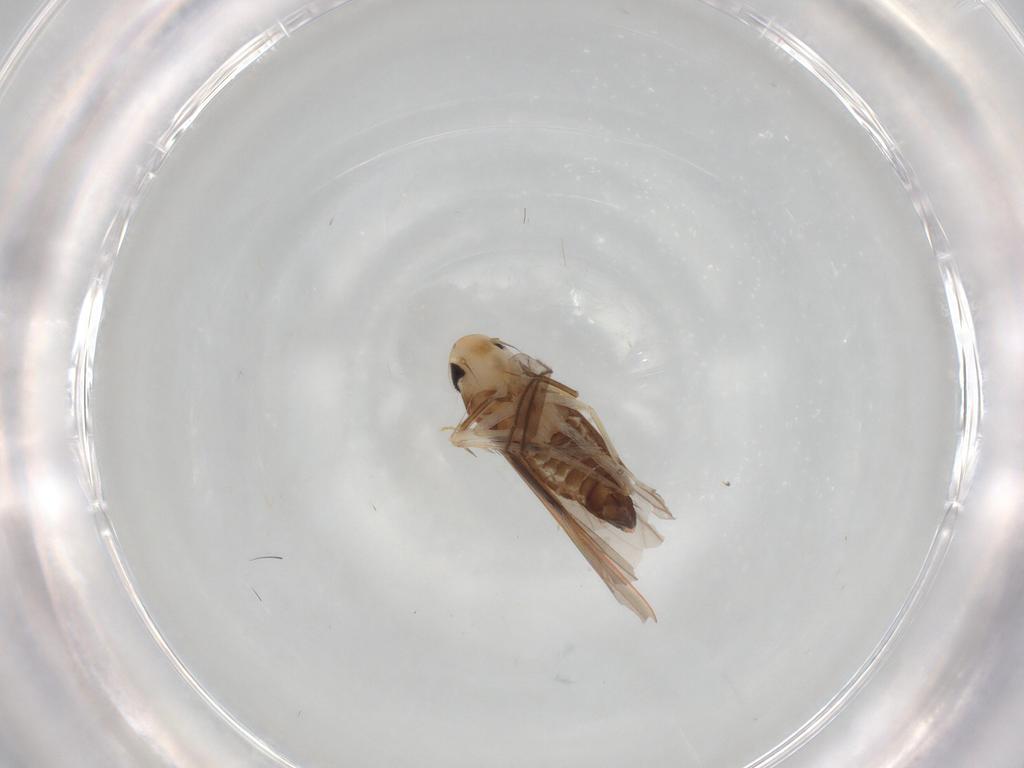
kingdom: Animalia
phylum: Arthropoda
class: Insecta
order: Hemiptera
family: Cicadellidae
